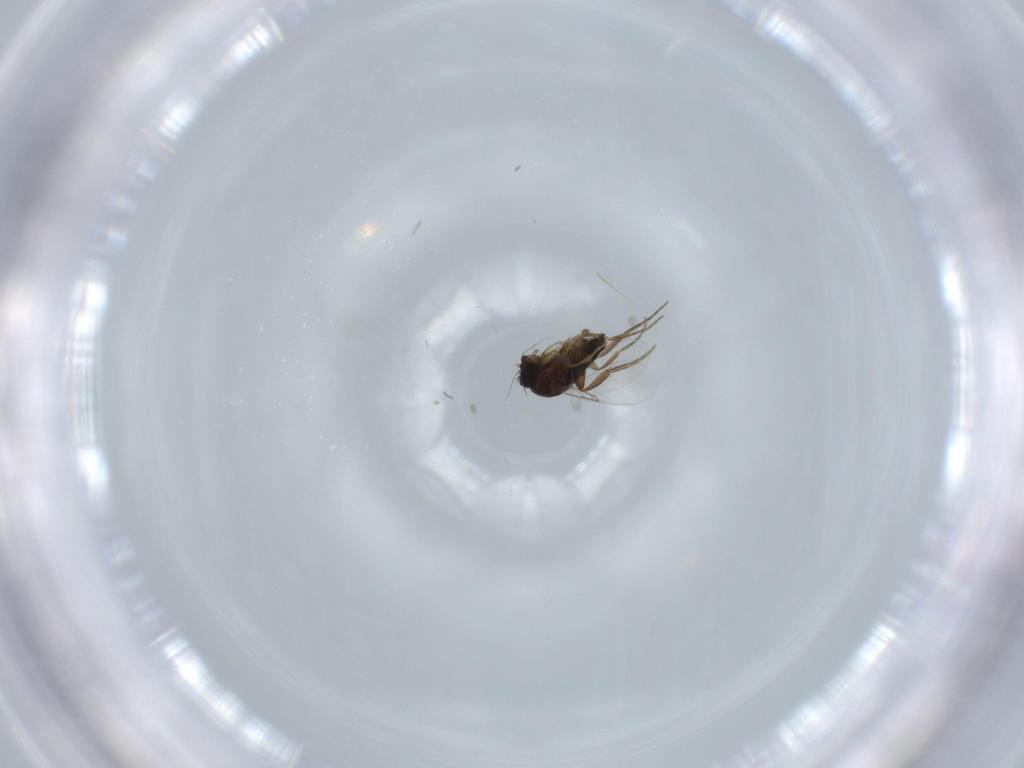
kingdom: Animalia
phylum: Arthropoda
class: Insecta
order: Diptera
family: Phoridae
